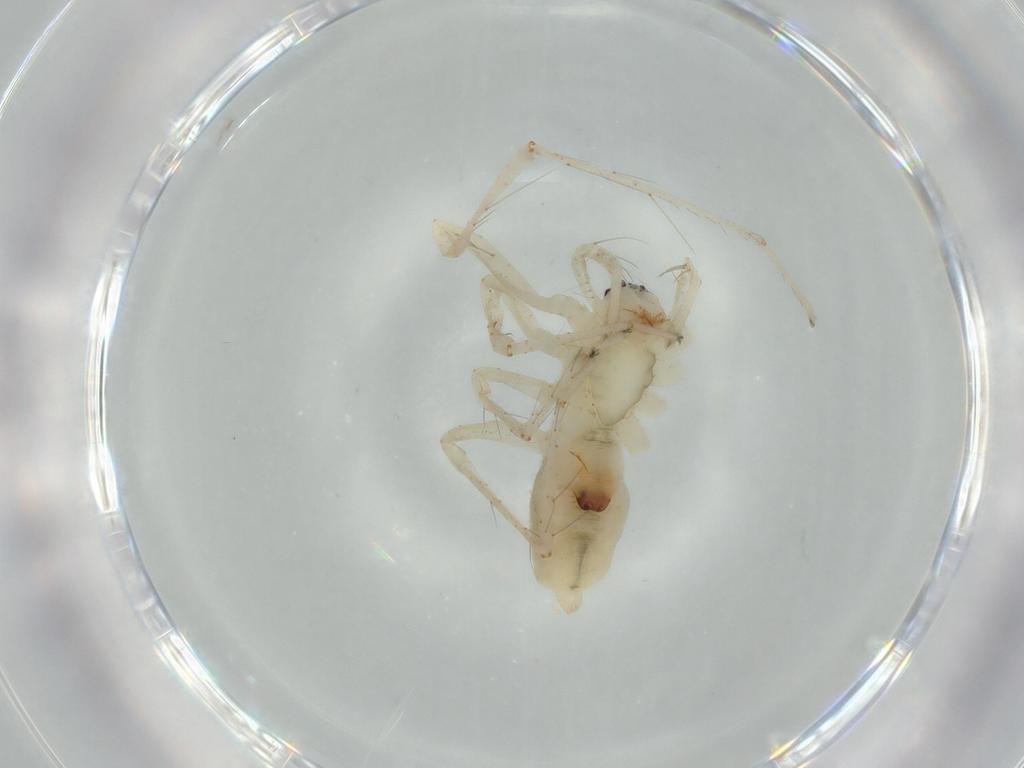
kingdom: Animalia
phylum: Arthropoda
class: Arachnida
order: Araneae
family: Anyphaenidae
